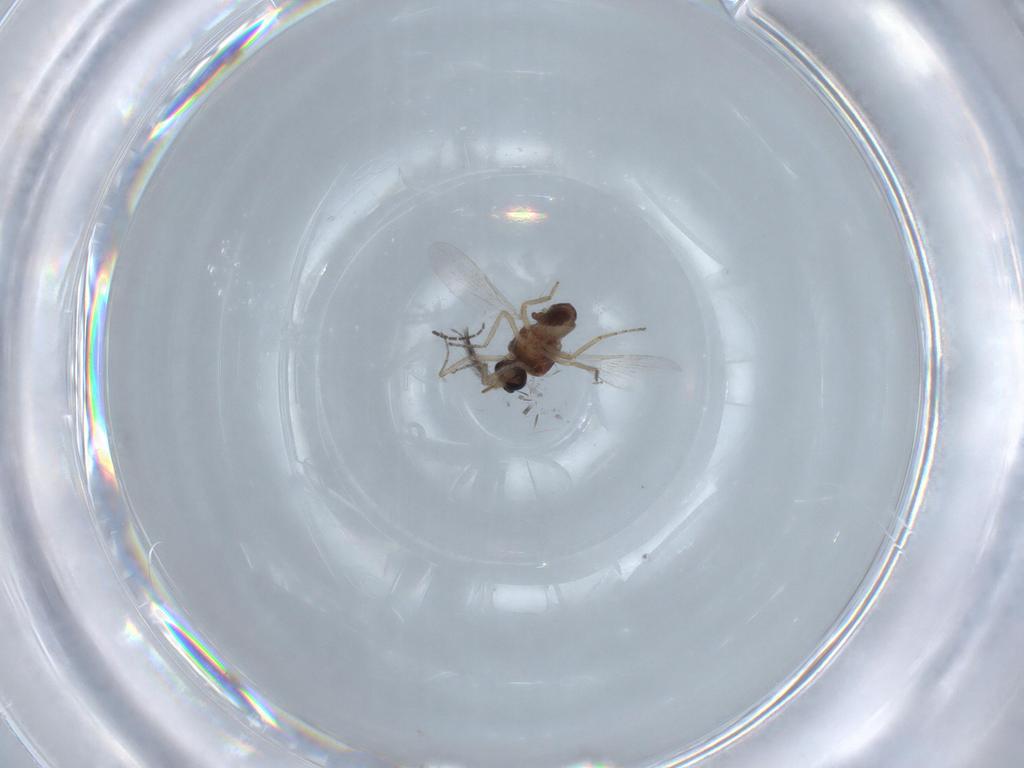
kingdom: Animalia
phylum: Arthropoda
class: Insecta
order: Diptera
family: Sciaridae
